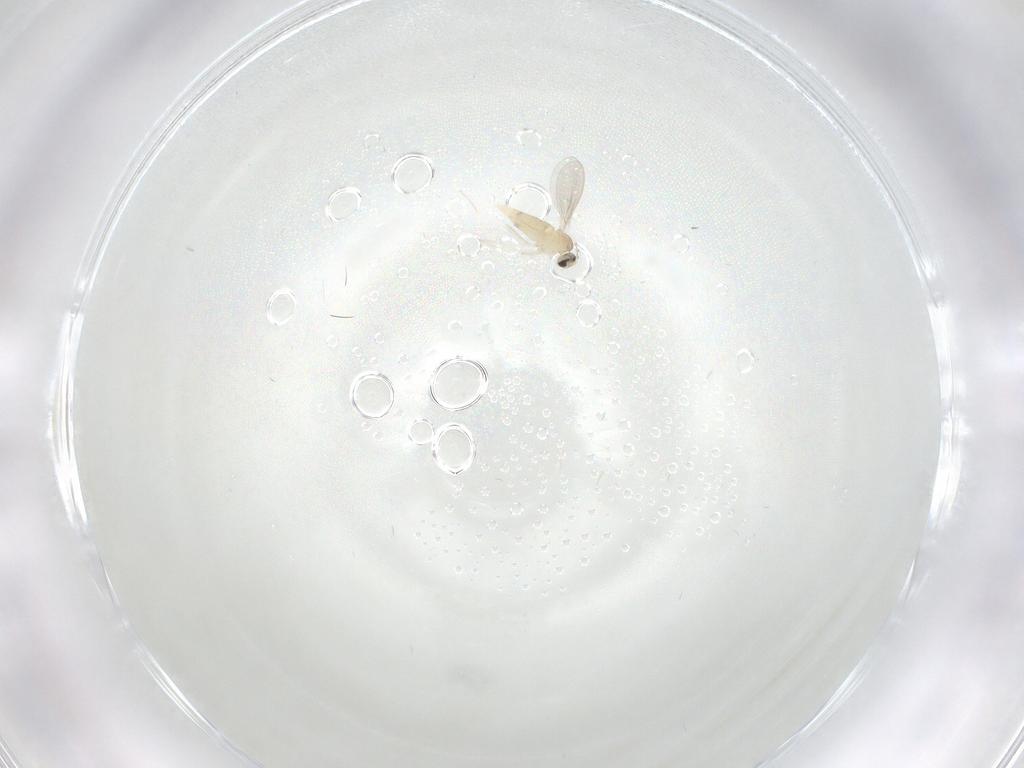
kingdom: Animalia
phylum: Arthropoda
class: Insecta
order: Diptera
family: Cecidomyiidae
